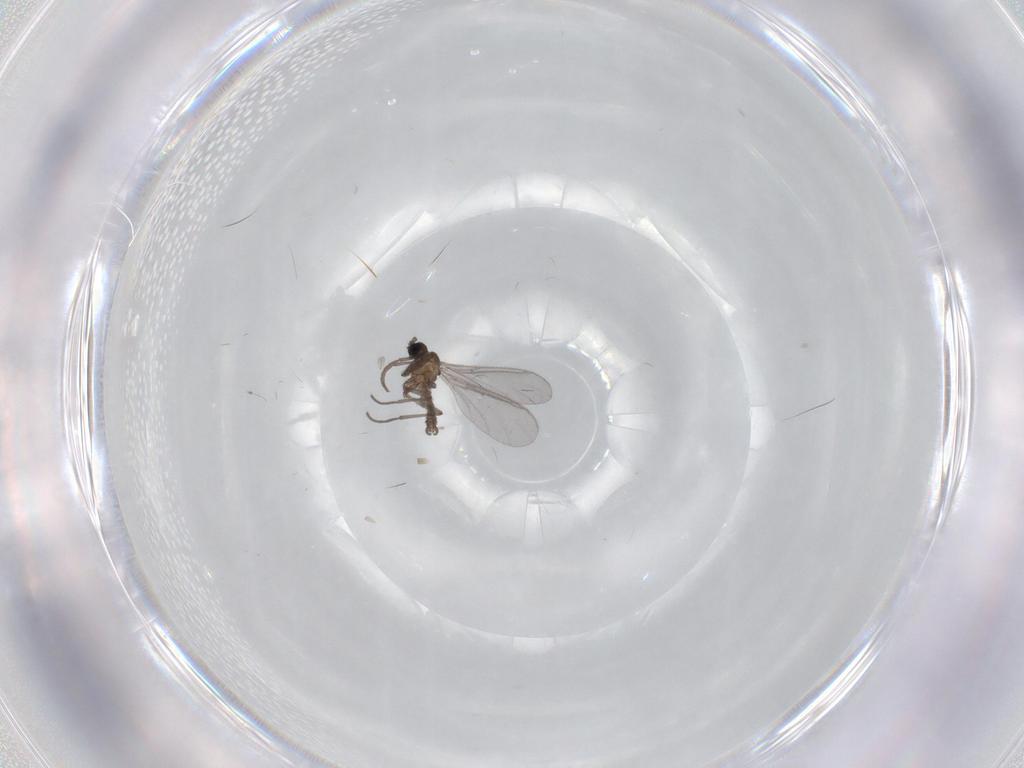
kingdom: Animalia
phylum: Arthropoda
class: Insecta
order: Diptera
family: Sciaridae
